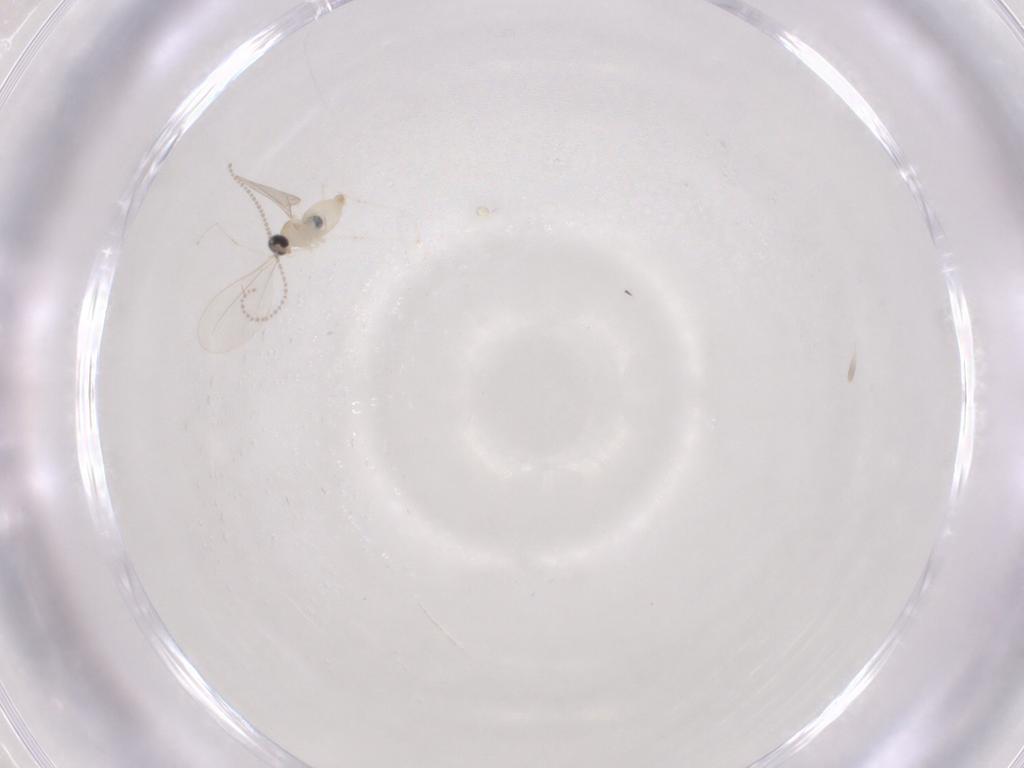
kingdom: Animalia
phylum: Arthropoda
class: Insecta
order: Diptera
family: Cecidomyiidae
